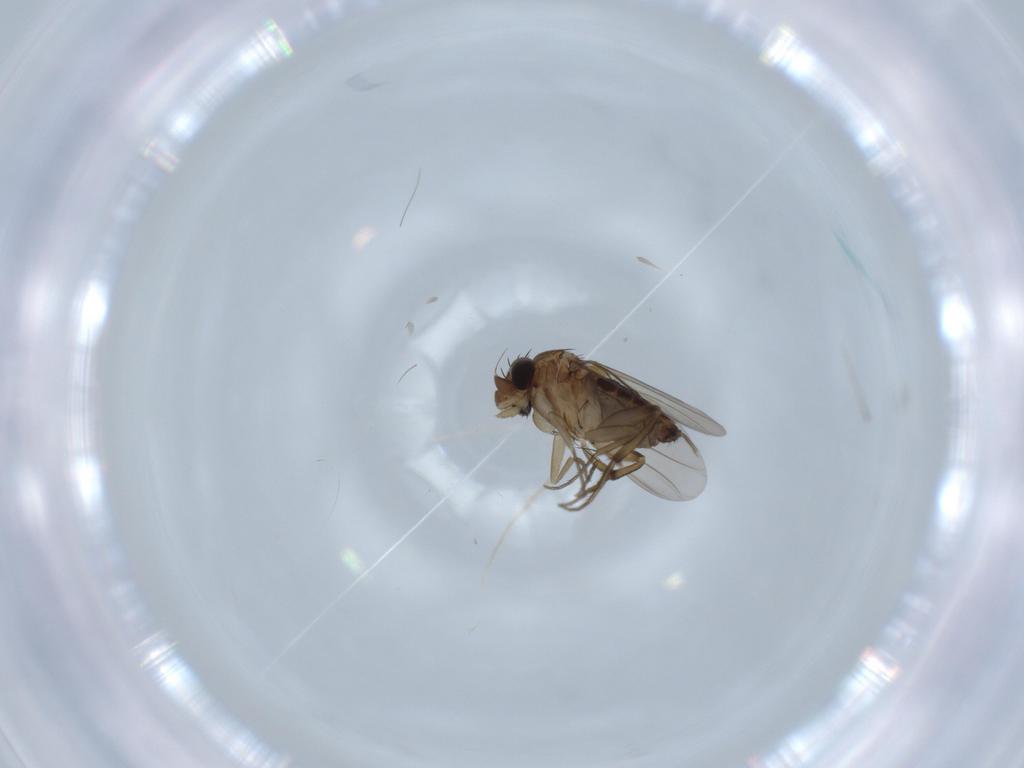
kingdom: Animalia
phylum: Arthropoda
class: Insecta
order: Diptera
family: Phoridae
